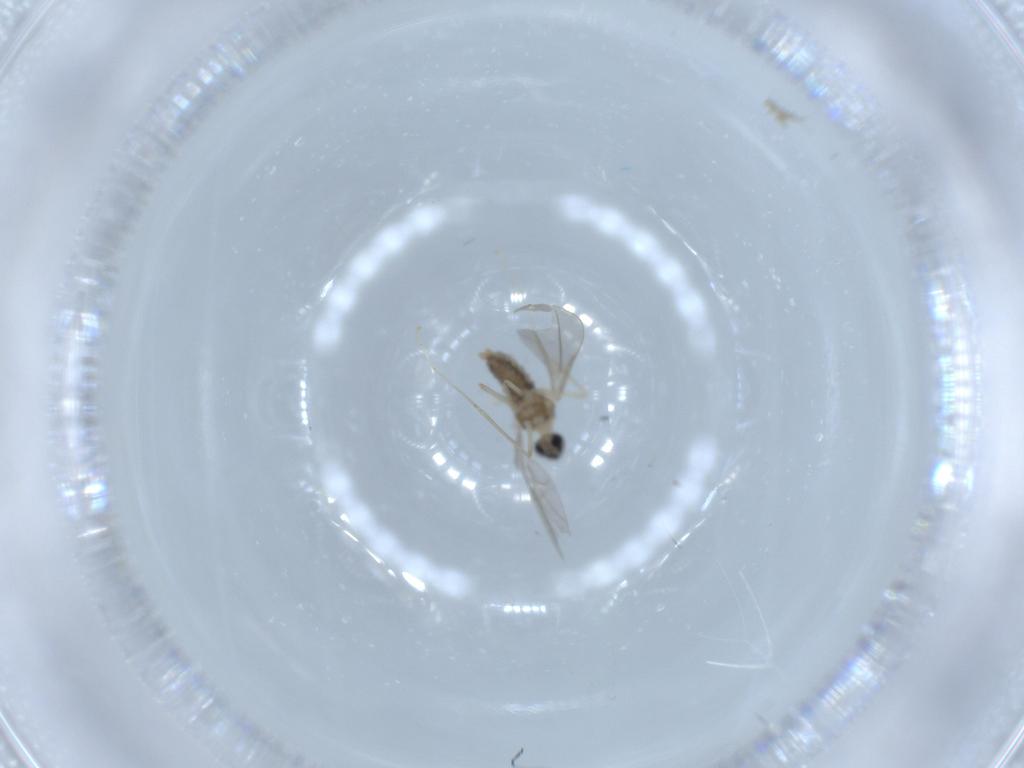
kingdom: Animalia
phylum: Arthropoda
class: Insecta
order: Diptera
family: Cecidomyiidae
